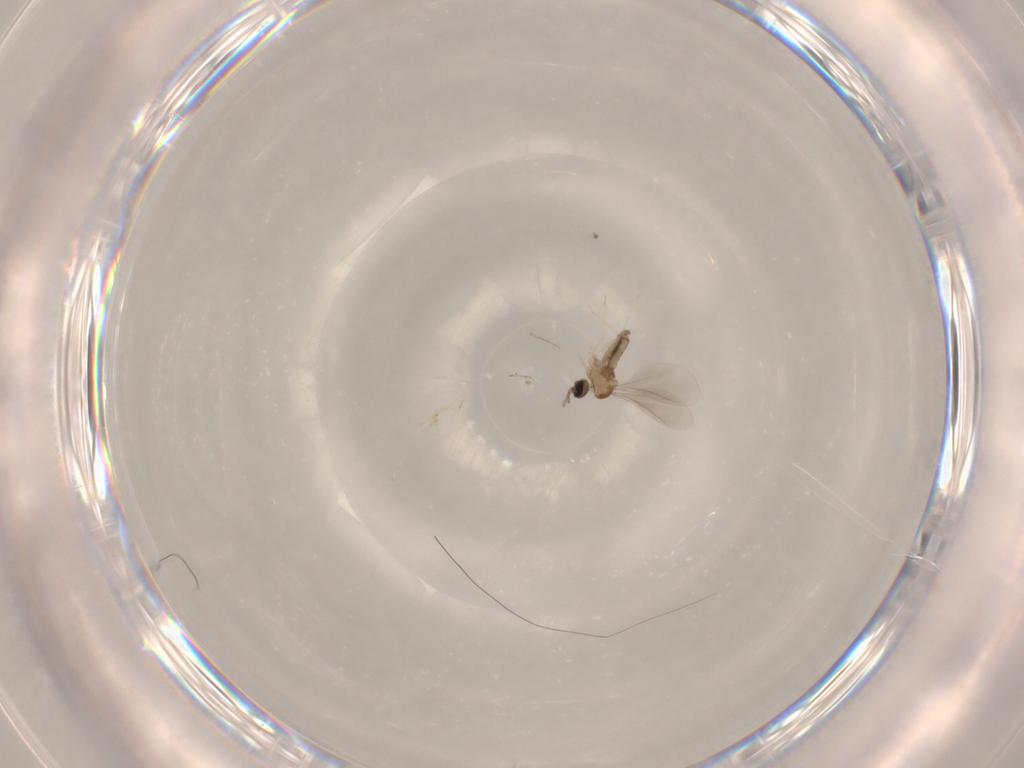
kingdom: Animalia
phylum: Arthropoda
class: Insecta
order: Diptera
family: Cecidomyiidae
